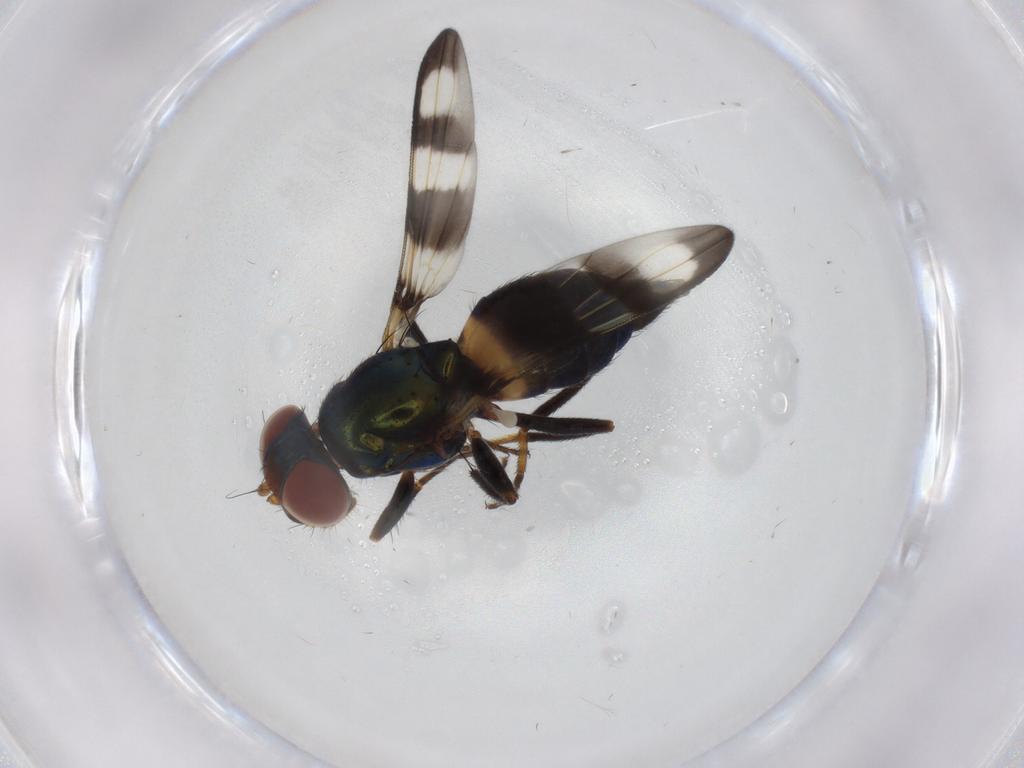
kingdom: Animalia
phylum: Arthropoda
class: Insecta
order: Diptera
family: Ulidiidae
